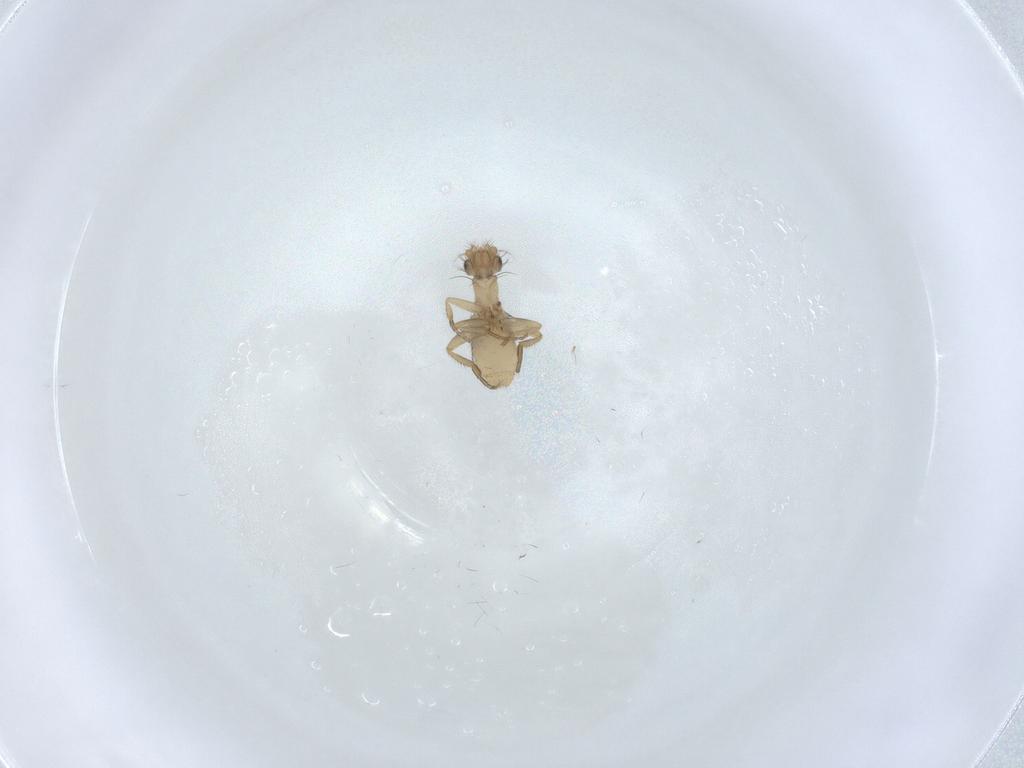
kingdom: Animalia
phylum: Arthropoda
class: Insecta
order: Diptera
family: Phoridae
